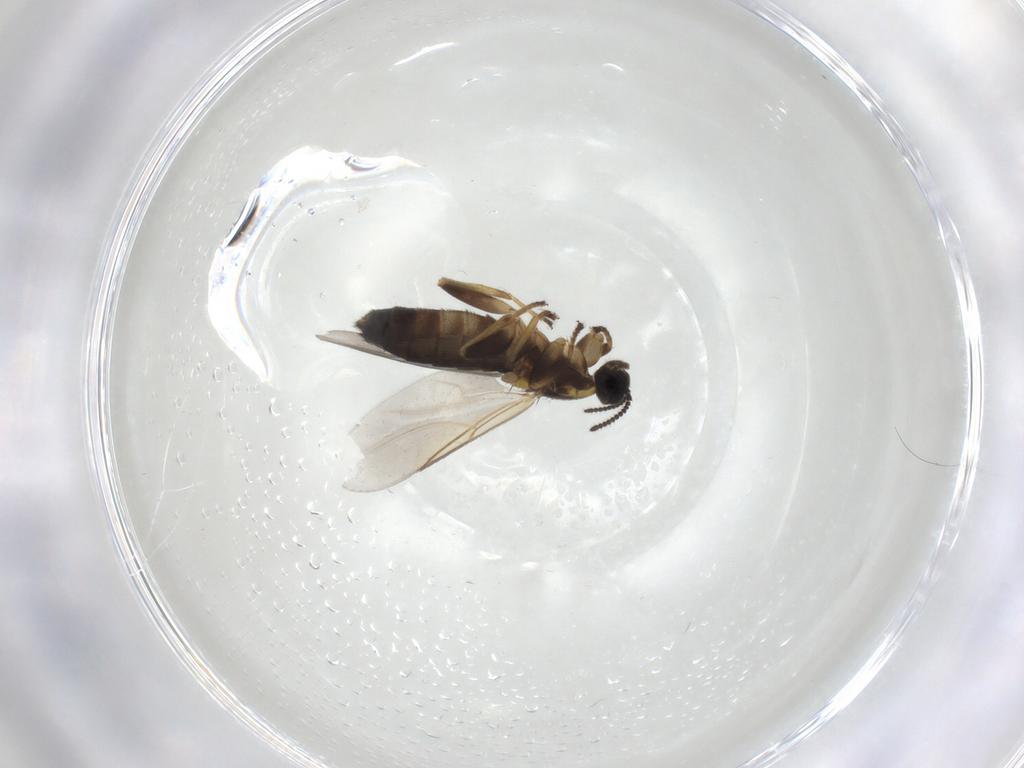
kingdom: Animalia
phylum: Arthropoda
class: Insecta
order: Diptera
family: Scatopsidae
